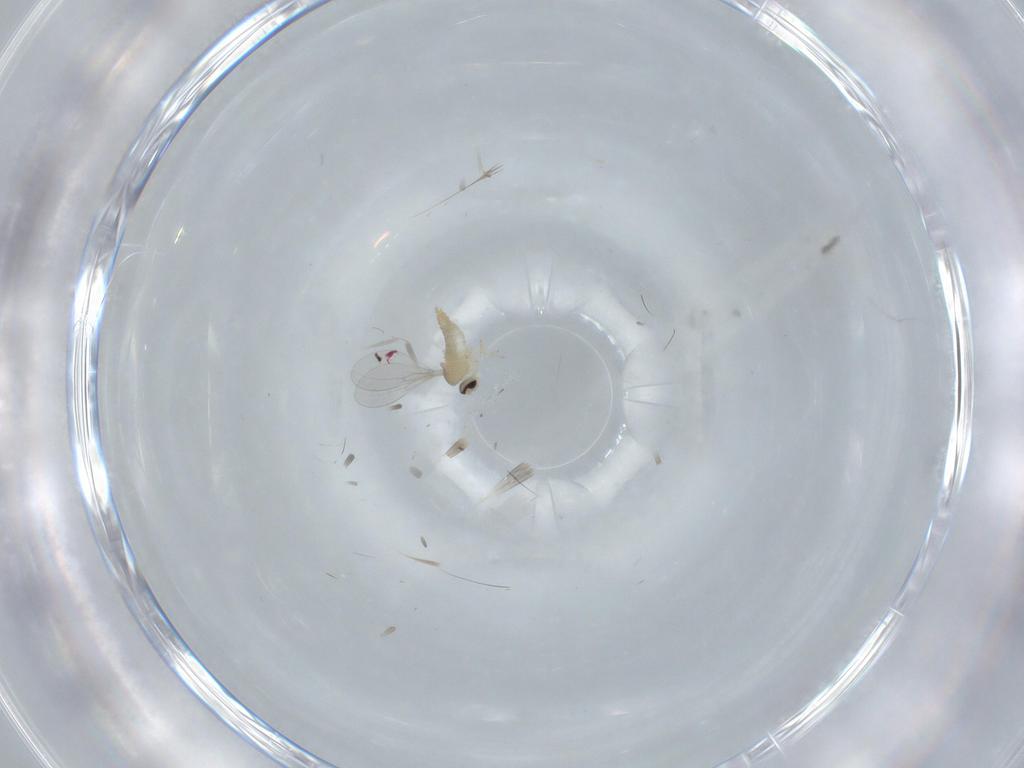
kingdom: Animalia
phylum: Arthropoda
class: Insecta
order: Diptera
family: Cecidomyiidae
